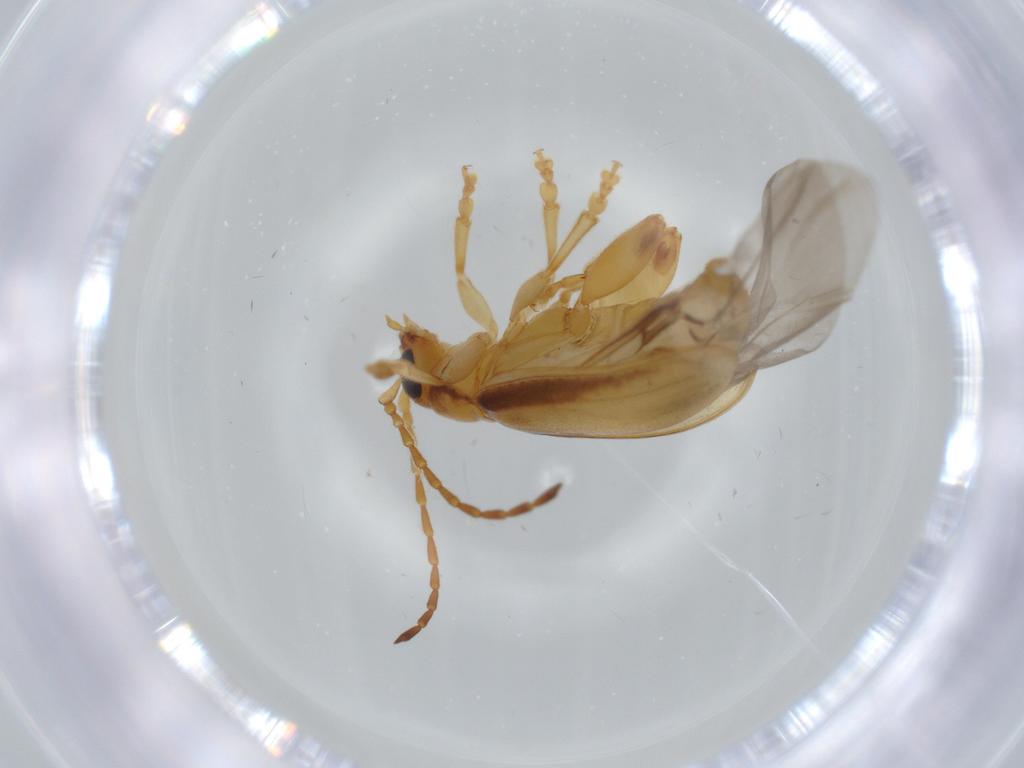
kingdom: Animalia
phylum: Arthropoda
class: Insecta
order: Coleoptera
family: Chrysomelidae
